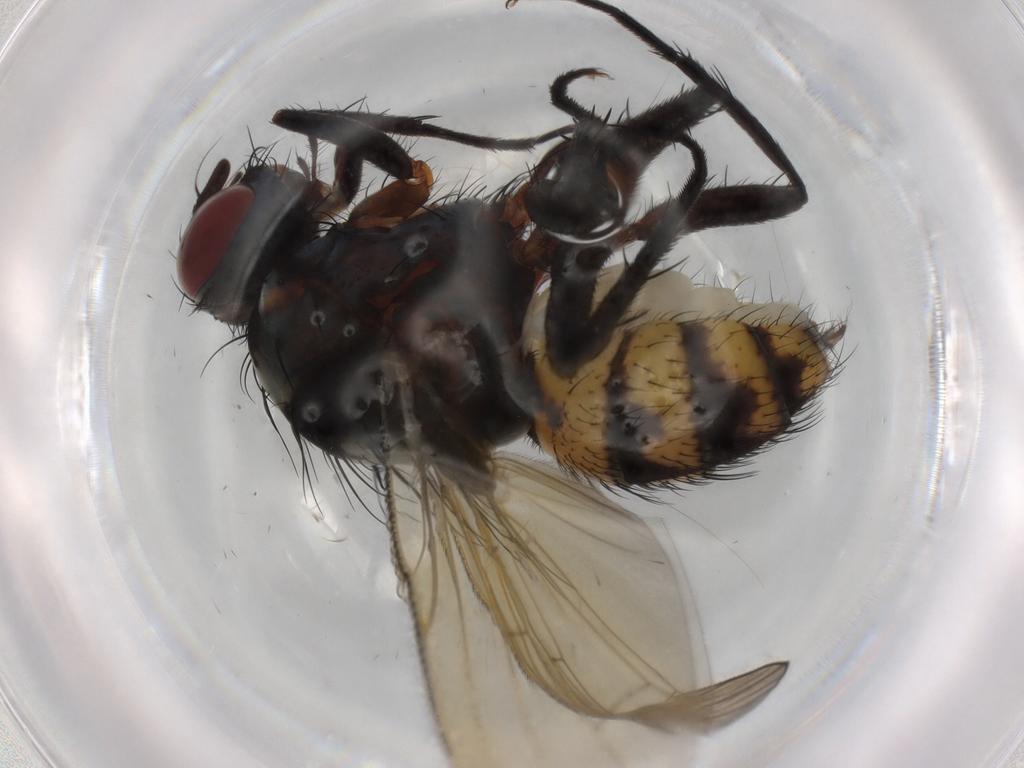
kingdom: Animalia
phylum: Arthropoda
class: Insecta
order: Diptera
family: Anthomyiidae
